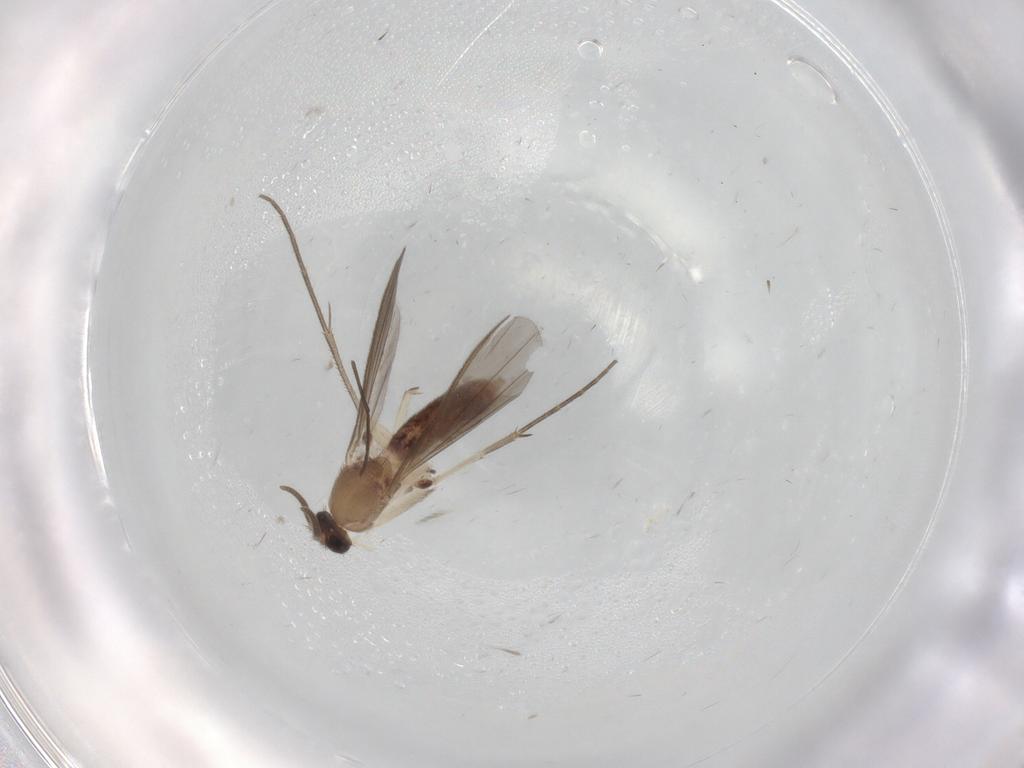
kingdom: Animalia
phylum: Arthropoda
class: Insecta
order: Diptera
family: Mycetophilidae
